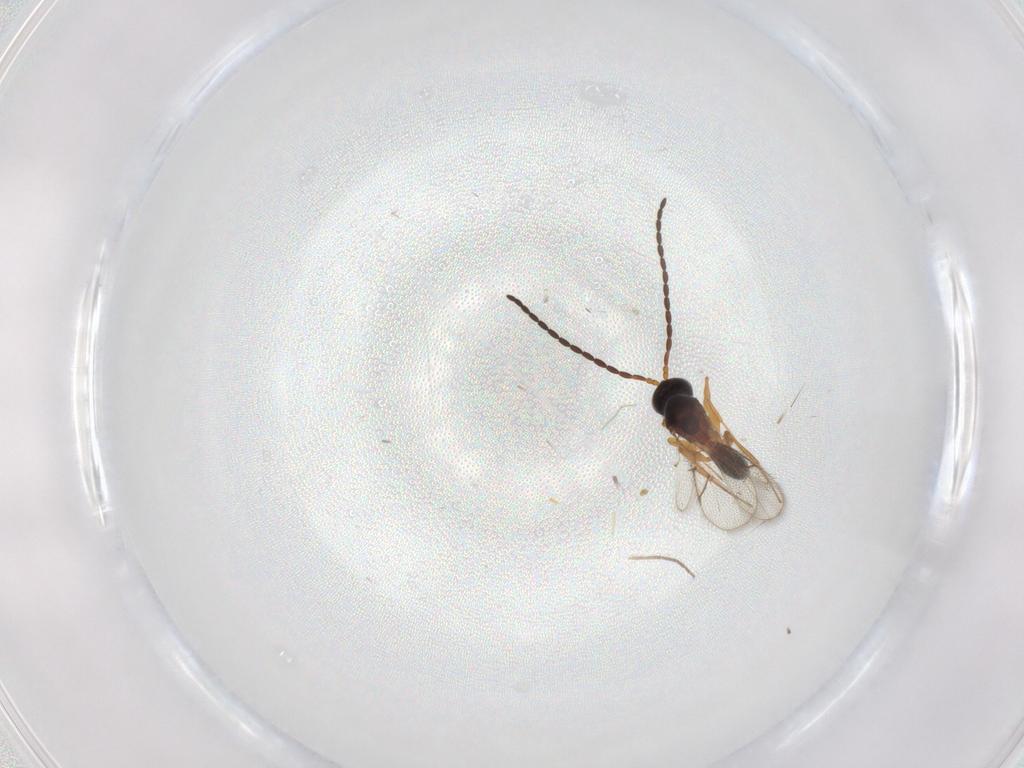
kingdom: Animalia
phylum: Arthropoda
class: Insecta
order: Hymenoptera
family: Figitidae
